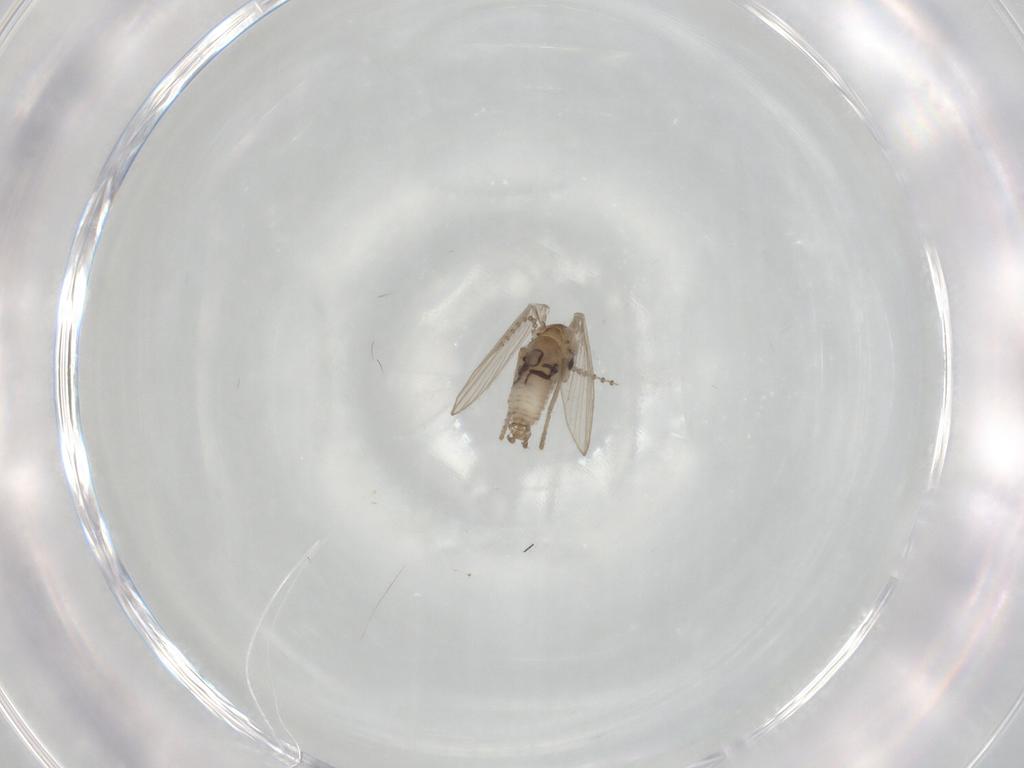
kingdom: Animalia
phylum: Arthropoda
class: Insecta
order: Diptera
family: Psychodidae
